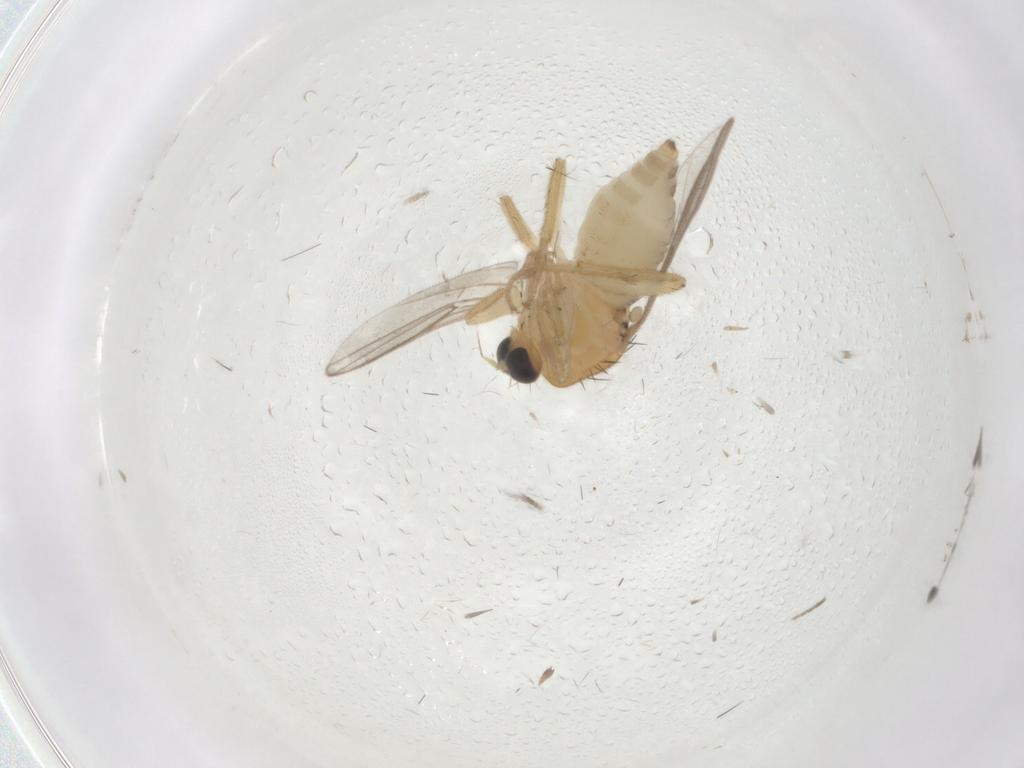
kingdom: Animalia
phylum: Arthropoda
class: Insecta
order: Diptera
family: Hybotidae
